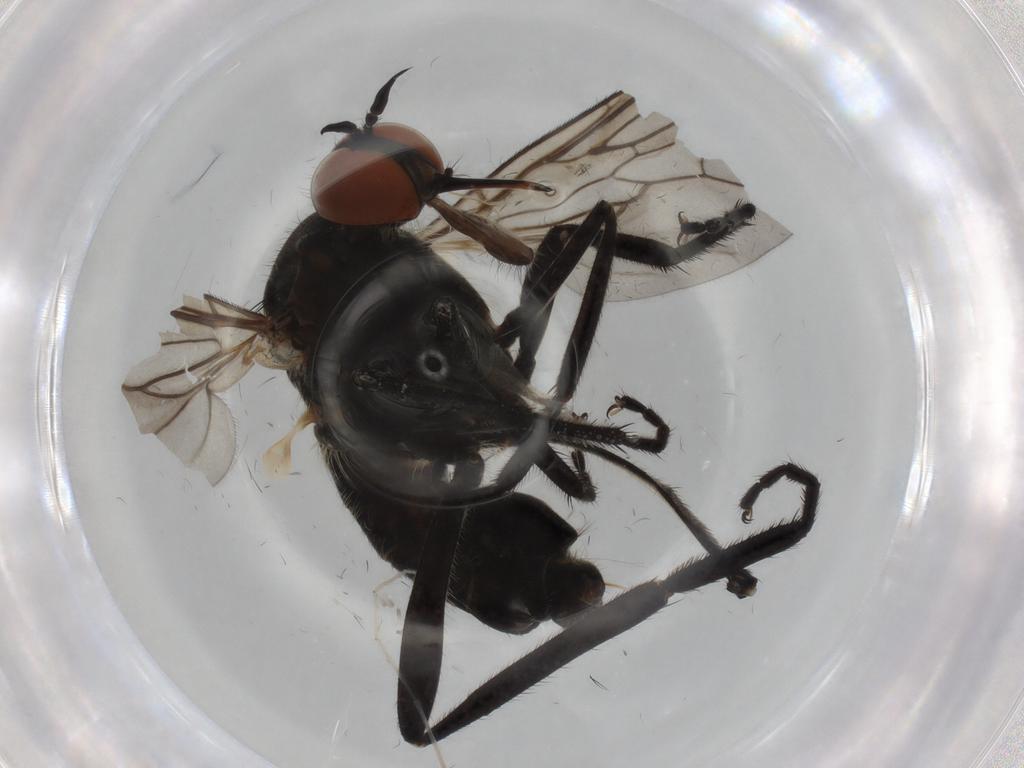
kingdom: Animalia
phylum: Arthropoda
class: Insecta
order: Diptera
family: Empididae
